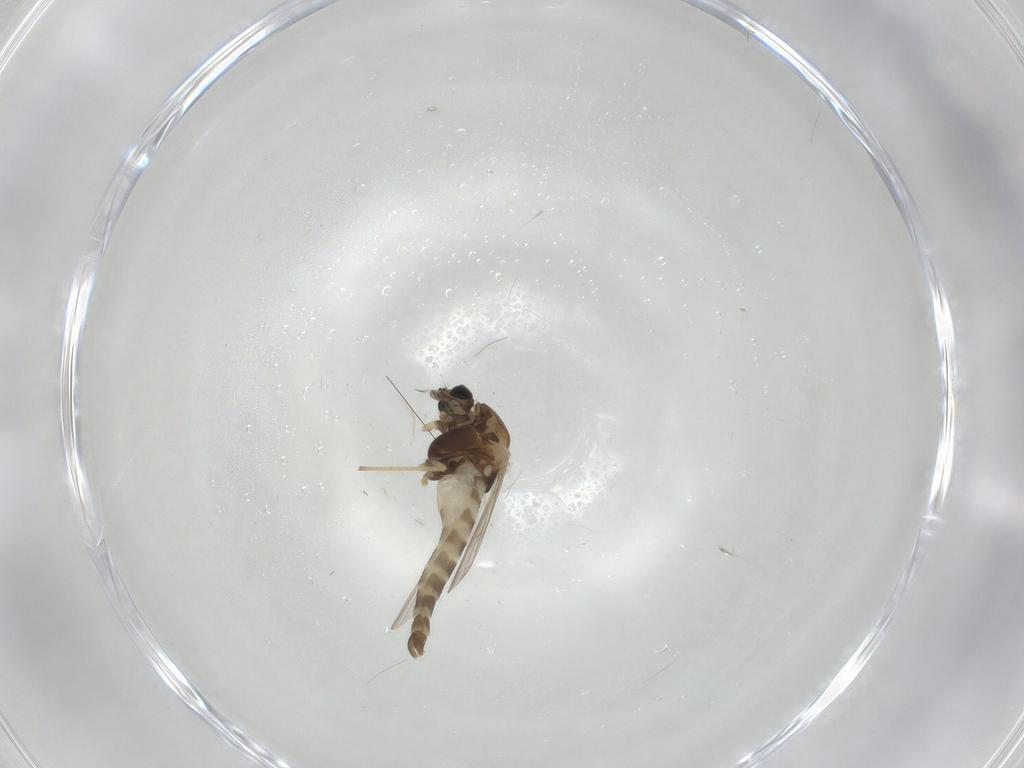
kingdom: Animalia
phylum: Arthropoda
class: Insecta
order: Diptera
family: Chironomidae
